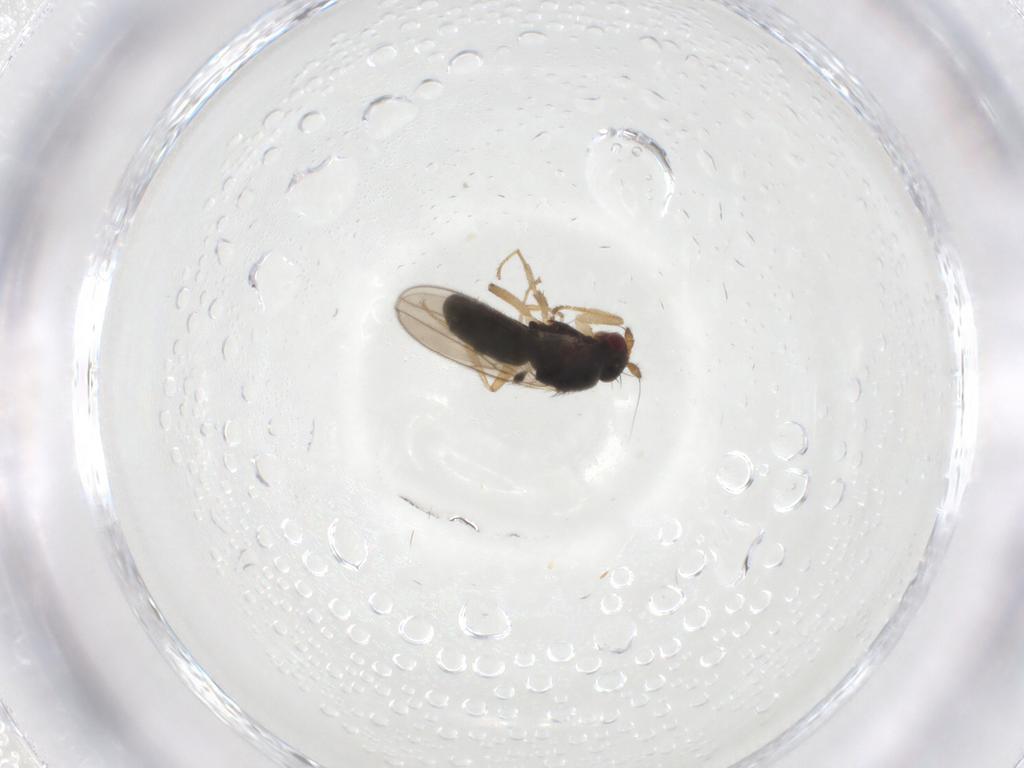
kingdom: Animalia
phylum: Arthropoda
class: Insecta
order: Diptera
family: Sphaeroceridae
